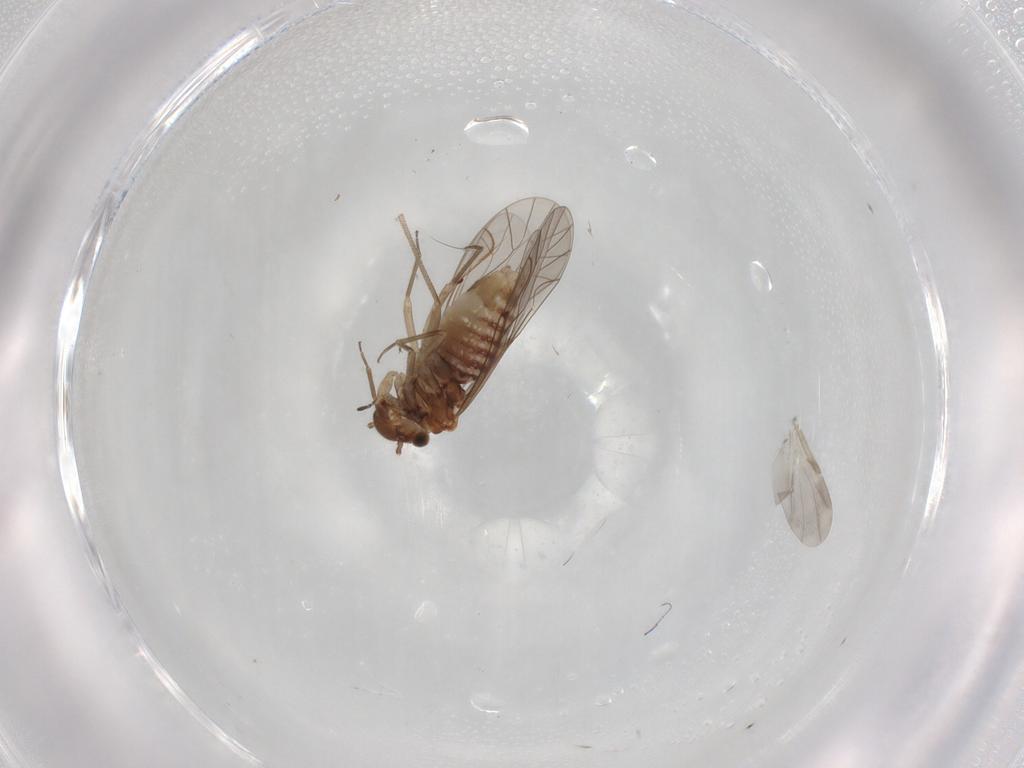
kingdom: Animalia
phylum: Arthropoda
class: Insecta
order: Psocodea
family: Lachesillidae
